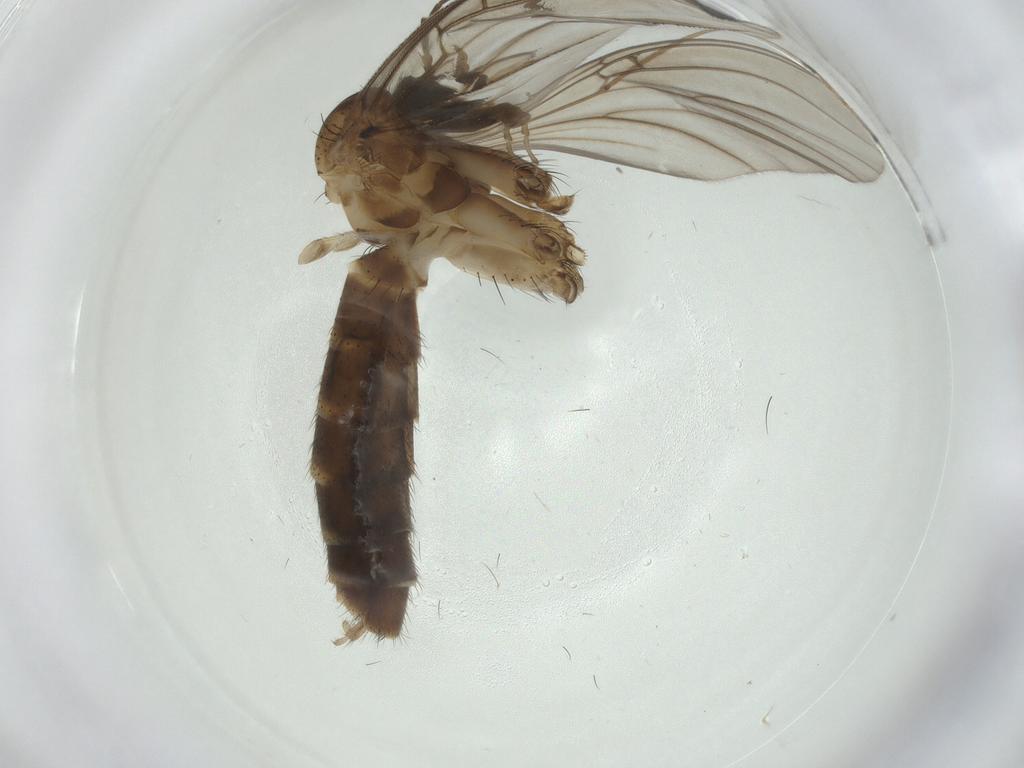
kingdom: Animalia
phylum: Arthropoda
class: Insecta
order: Diptera
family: Mycetophilidae
